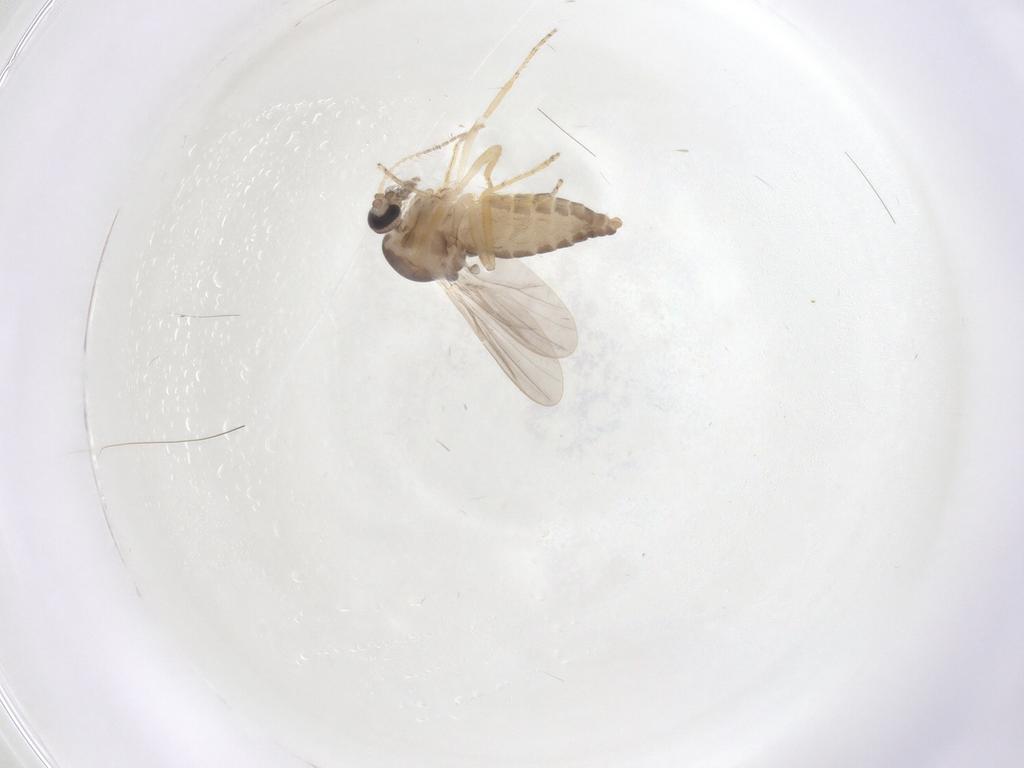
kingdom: Animalia
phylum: Arthropoda
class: Insecta
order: Diptera
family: Ceratopogonidae
